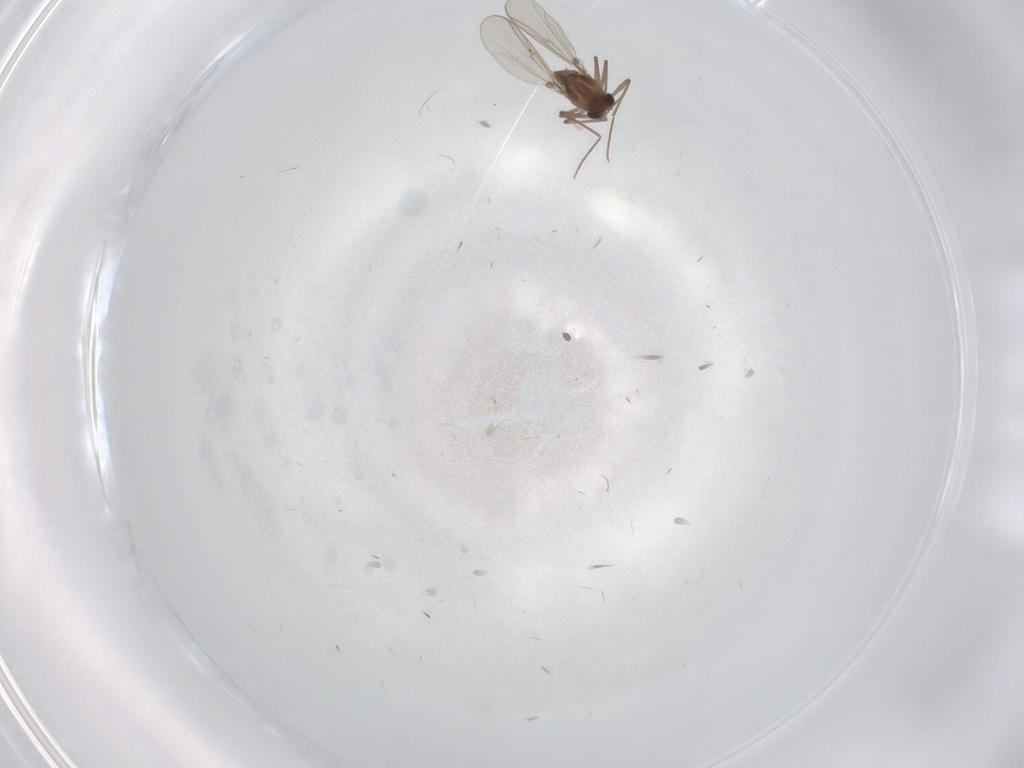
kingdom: Animalia
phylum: Arthropoda
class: Insecta
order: Diptera
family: Chironomidae
